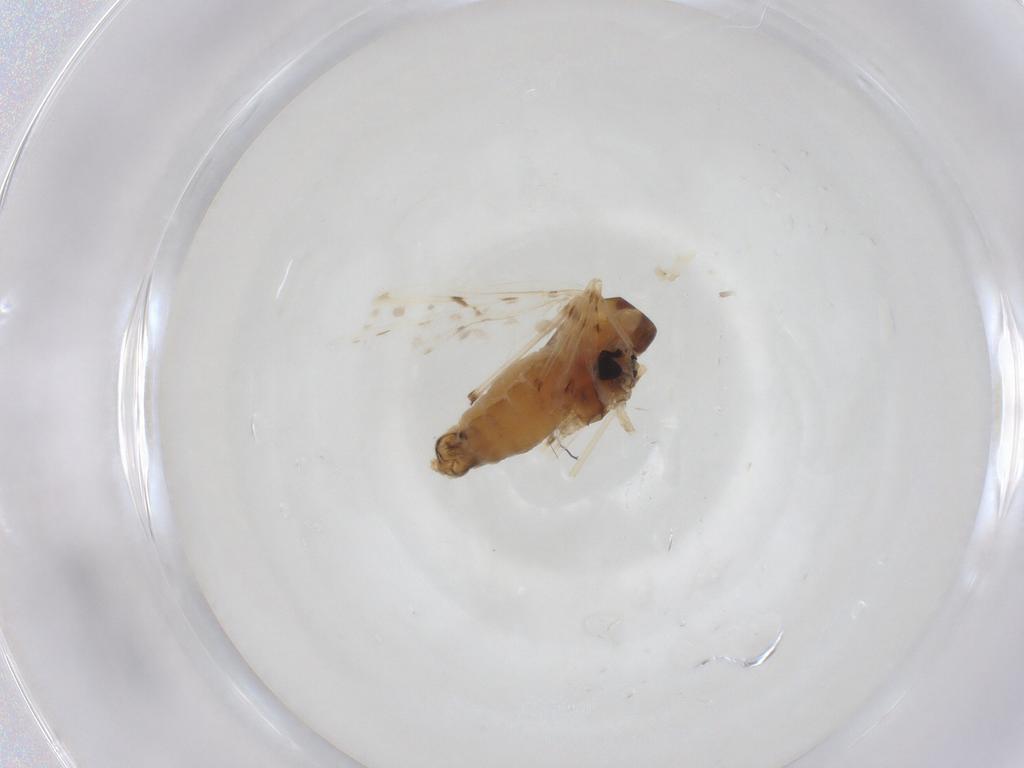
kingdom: Animalia
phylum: Arthropoda
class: Insecta
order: Diptera
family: Chironomidae
